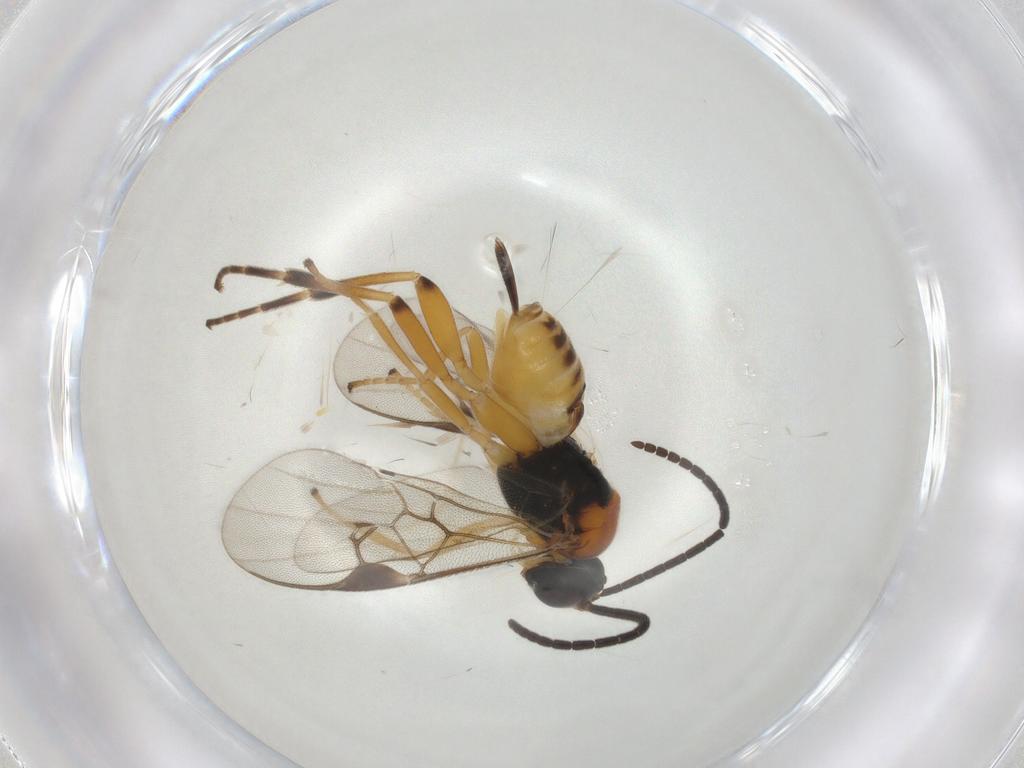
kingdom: Animalia
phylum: Arthropoda
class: Insecta
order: Hymenoptera
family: Braconidae
